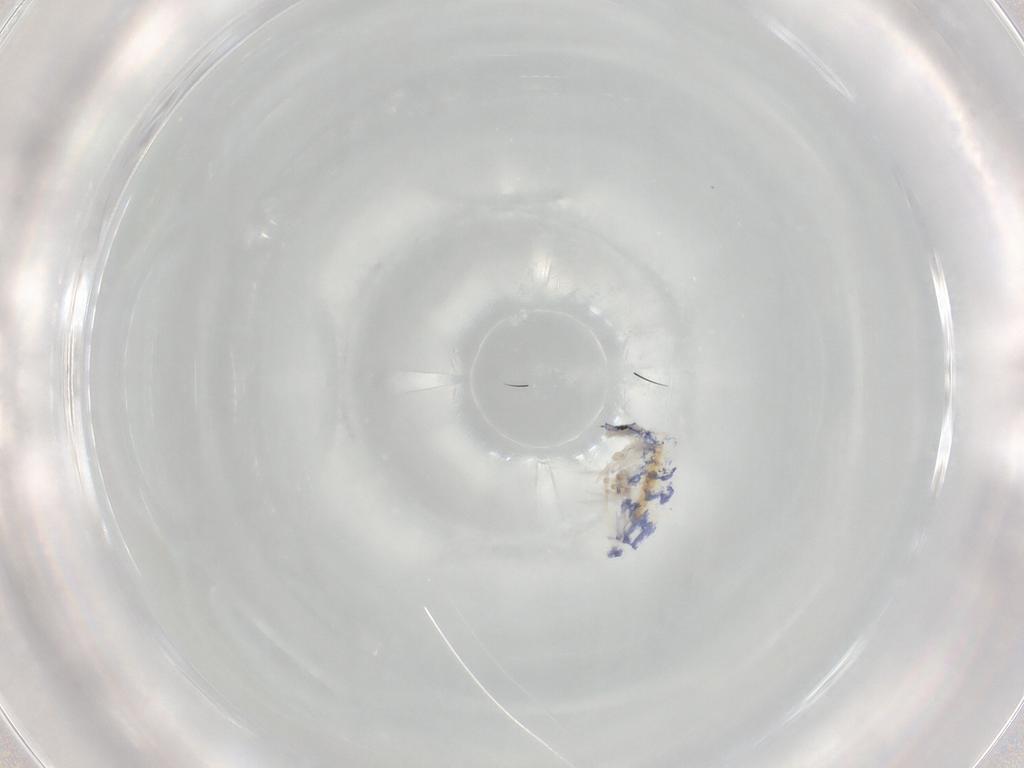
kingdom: Animalia
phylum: Arthropoda
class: Collembola
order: Entomobryomorpha
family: Entomobryidae
